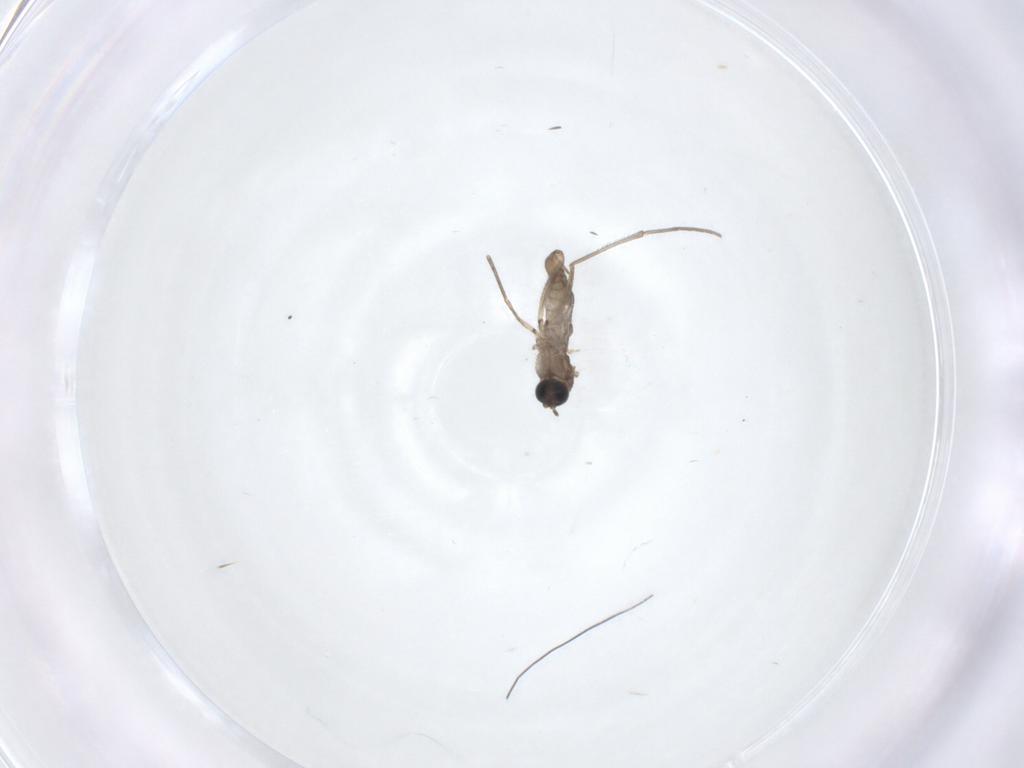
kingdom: Animalia
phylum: Arthropoda
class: Insecta
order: Diptera
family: Sciaridae
